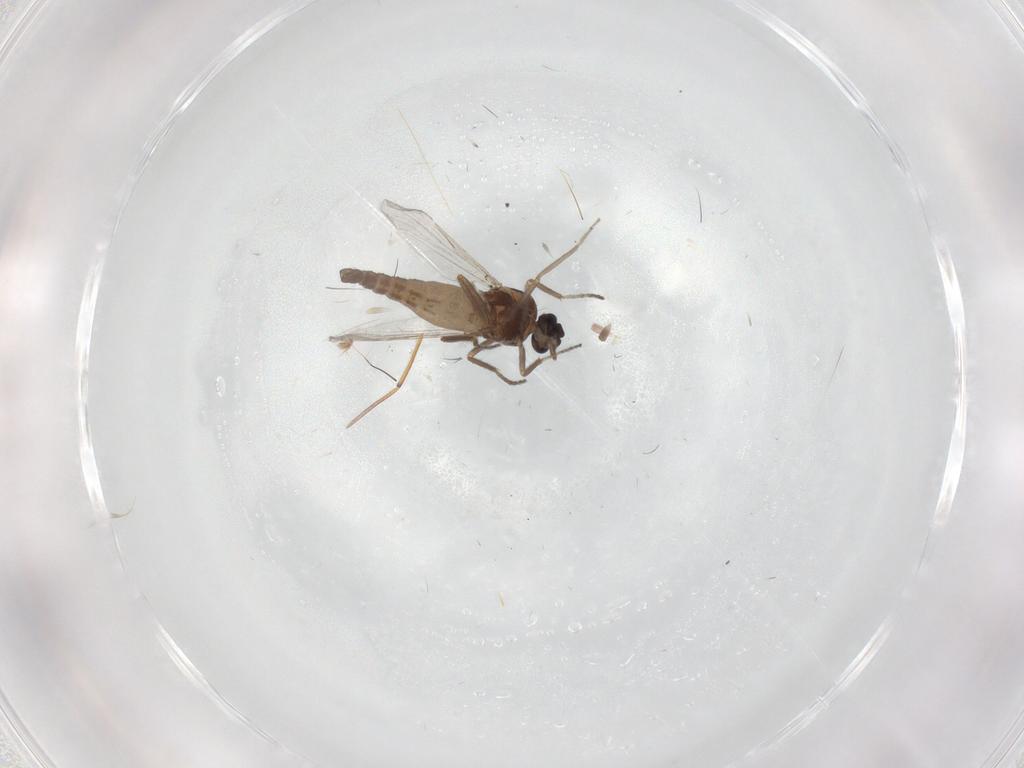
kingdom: Animalia
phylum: Arthropoda
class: Insecta
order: Diptera
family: Ceratopogonidae
